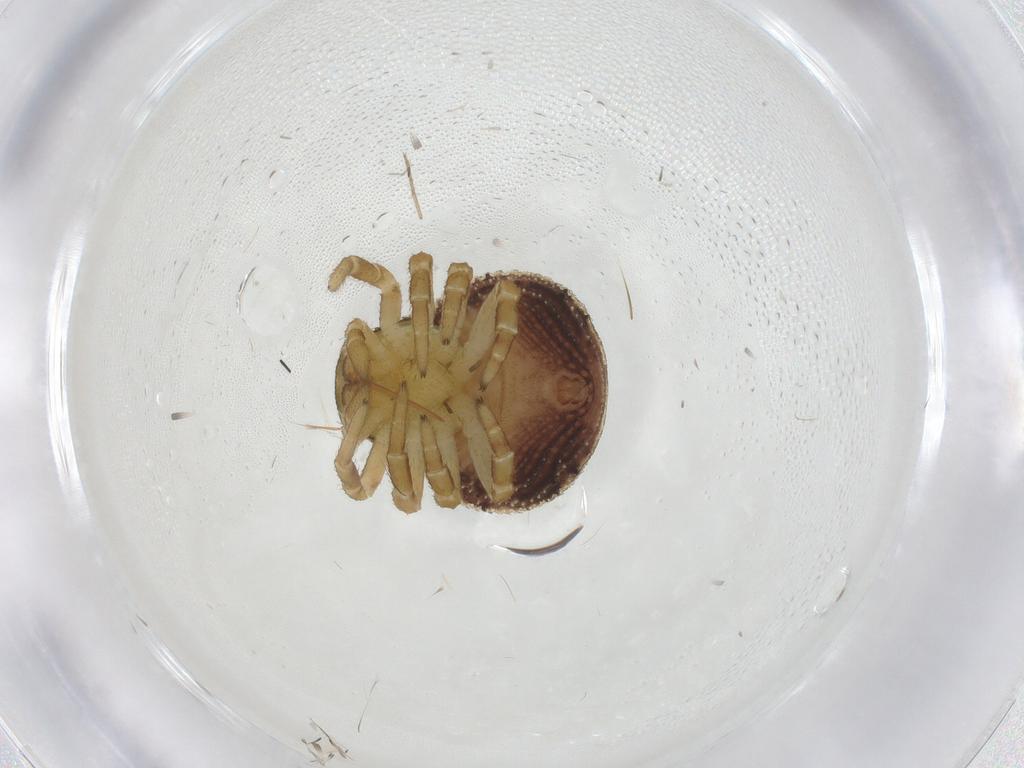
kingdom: Animalia
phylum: Arthropoda
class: Arachnida
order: Araneae
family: Thomisidae
